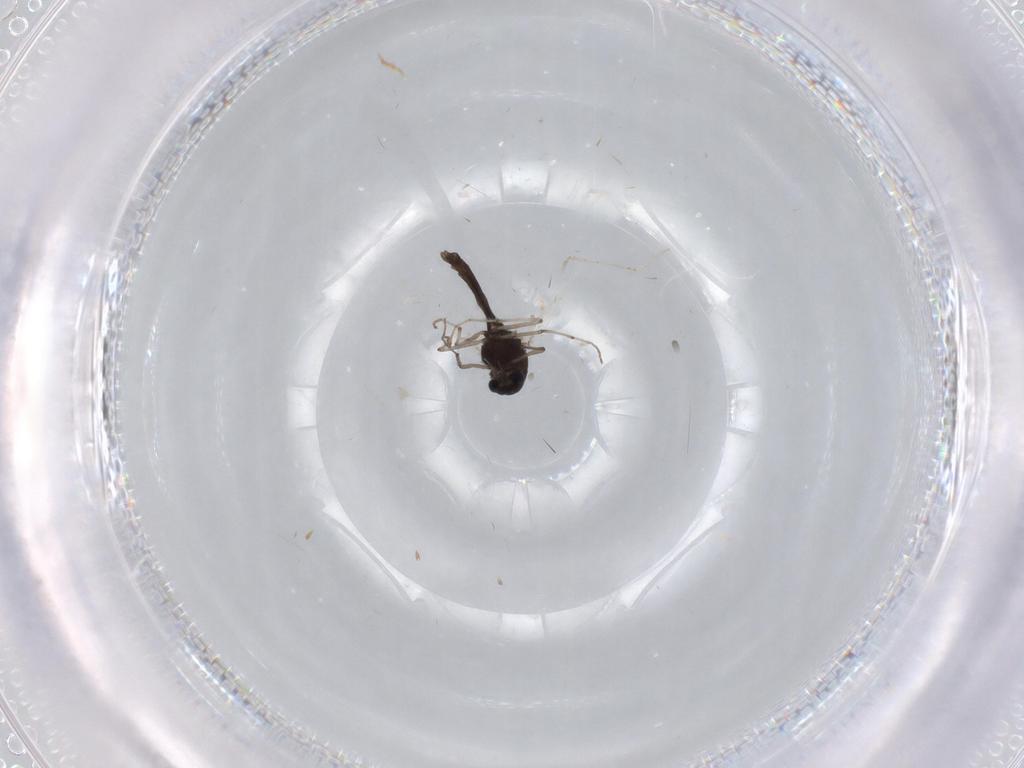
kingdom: Animalia
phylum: Arthropoda
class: Insecta
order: Diptera
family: Chironomidae
